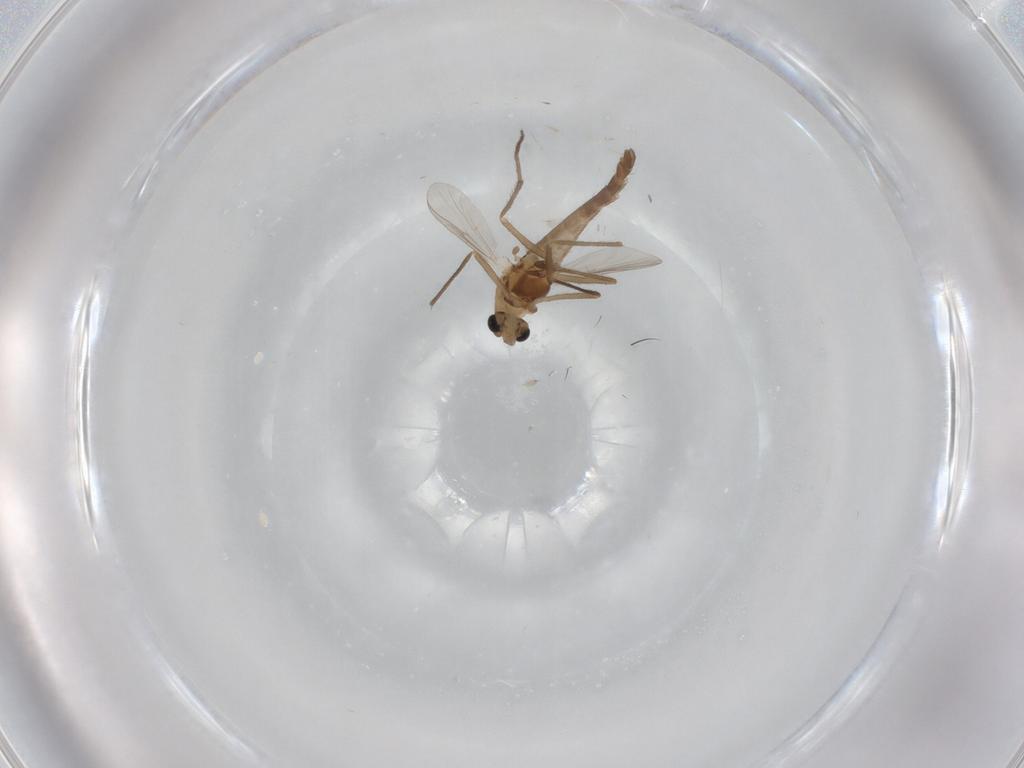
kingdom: Animalia
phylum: Arthropoda
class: Insecta
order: Diptera
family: Chironomidae
